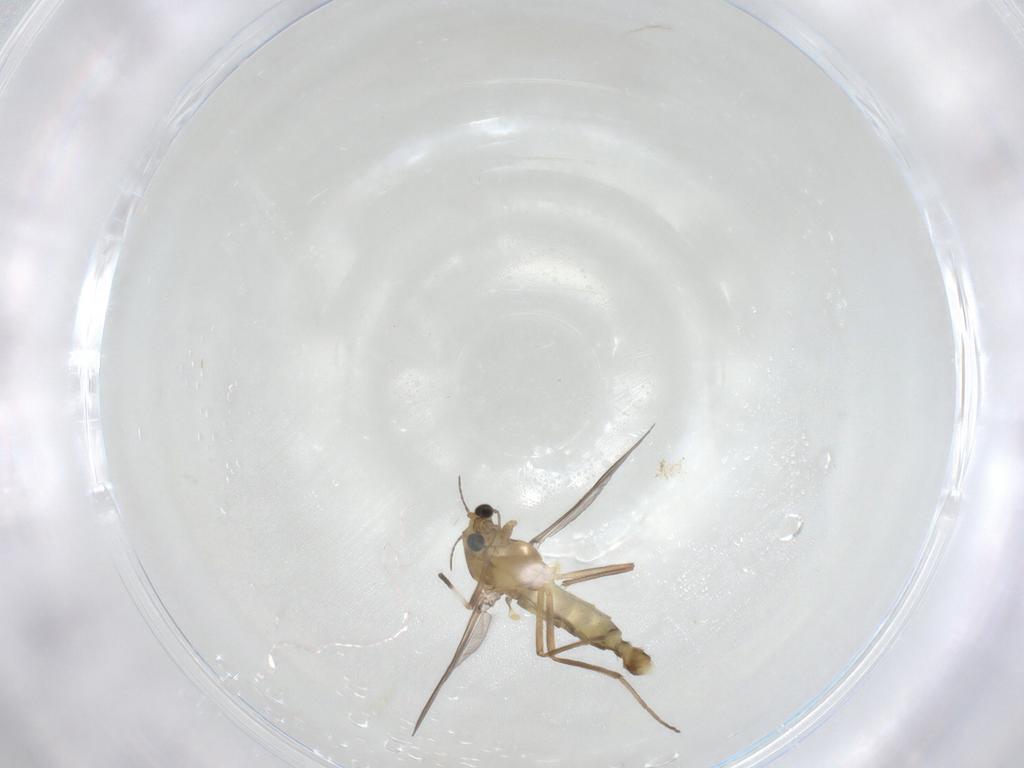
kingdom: Animalia
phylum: Arthropoda
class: Insecta
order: Diptera
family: Chironomidae
